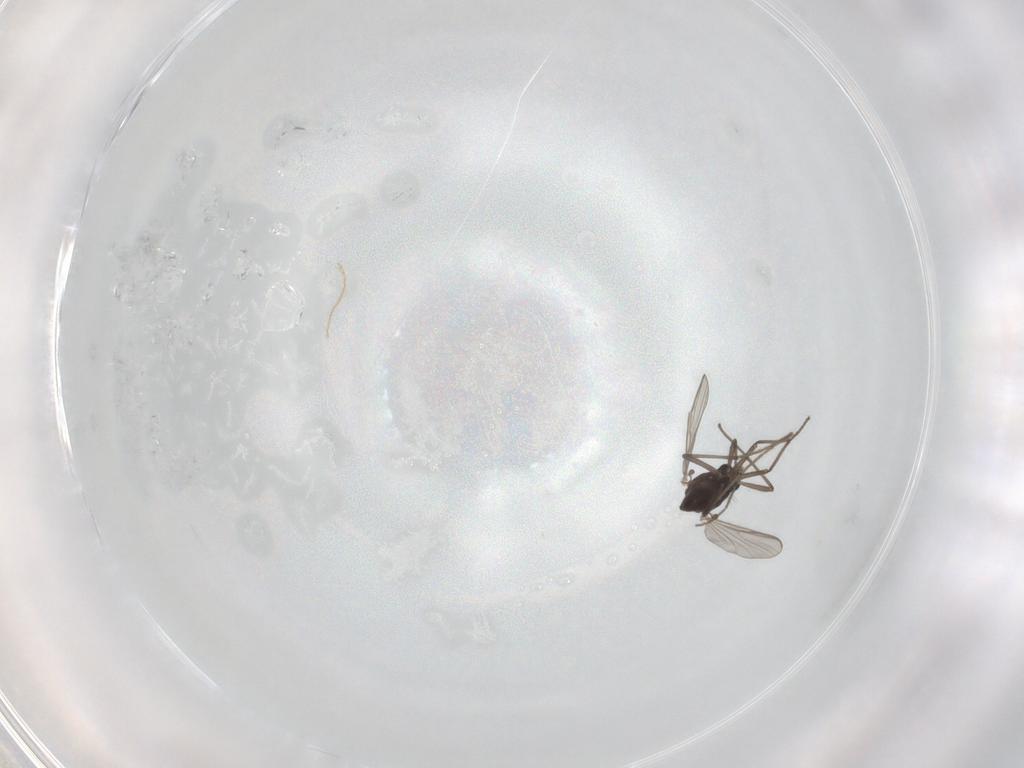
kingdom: Animalia
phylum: Arthropoda
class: Insecta
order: Diptera
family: Chironomidae
